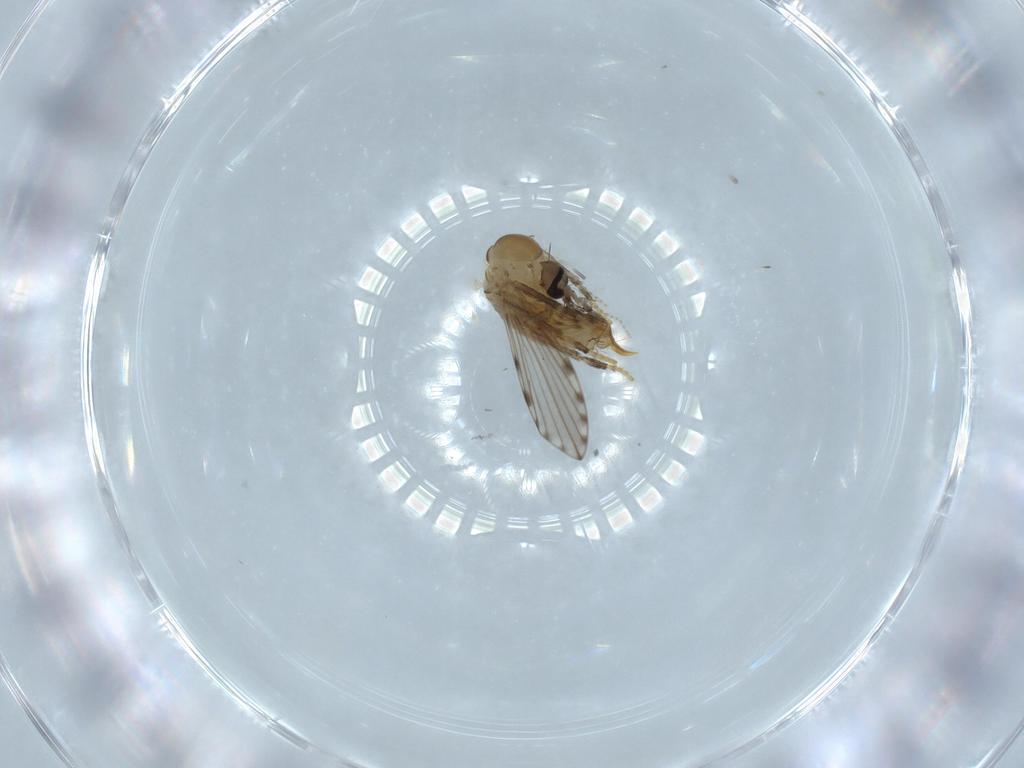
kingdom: Animalia
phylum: Arthropoda
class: Insecta
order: Diptera
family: Psychodidae
